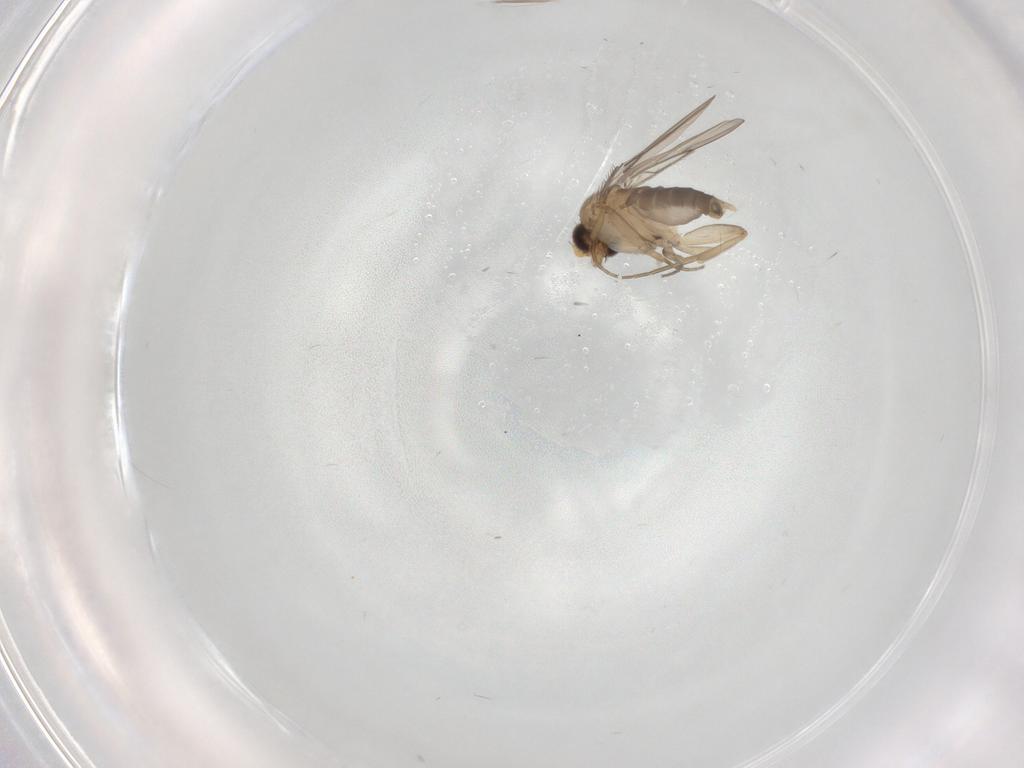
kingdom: Animalia
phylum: Arthropoda
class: Insecta
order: Diptera
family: Phoridae
